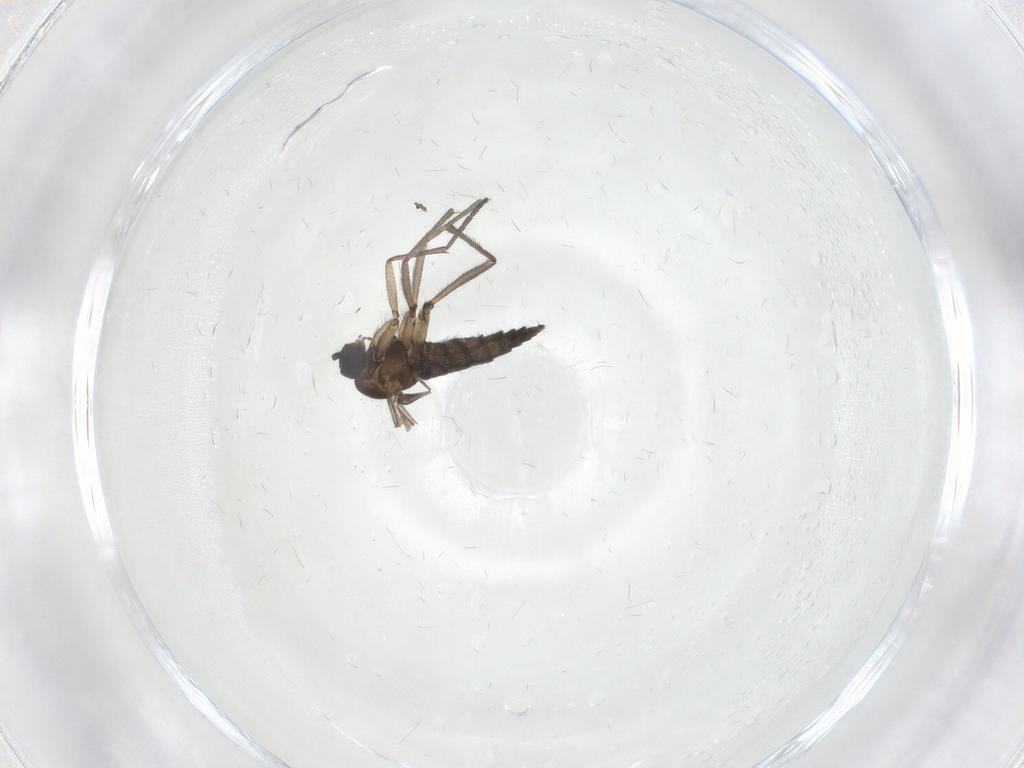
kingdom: Animalia
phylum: Arthropoda
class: Insecta
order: Diptera
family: Sciaridae
